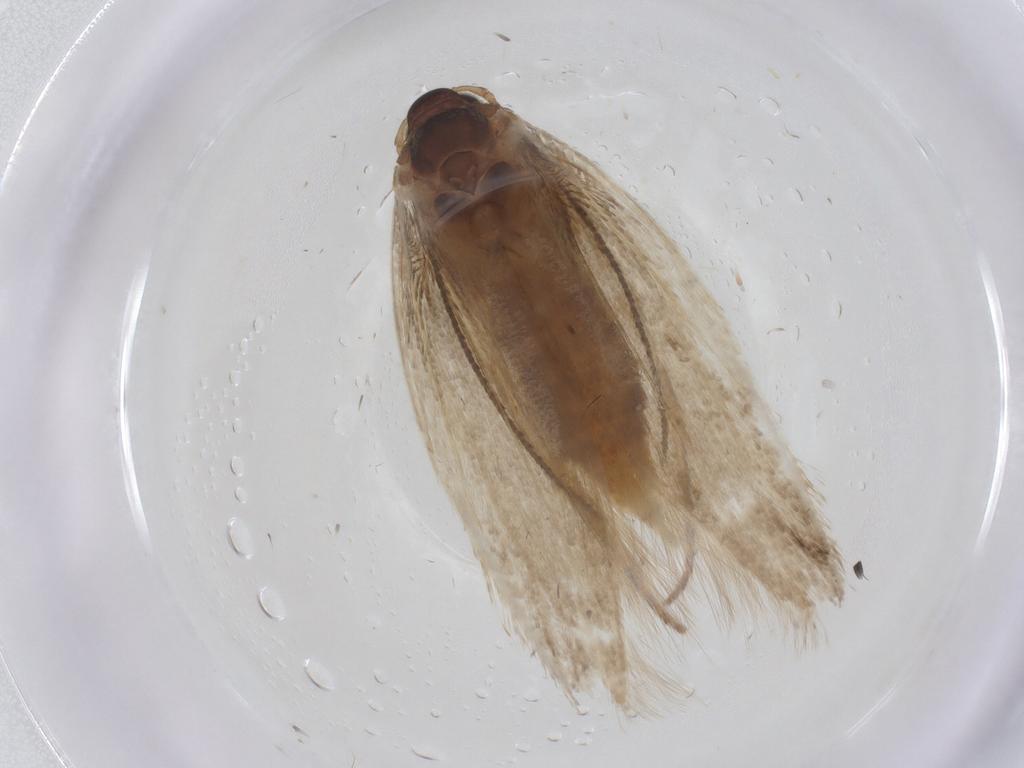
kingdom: Animalia
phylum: Arthropoda
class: Insecta
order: Lepidoptera
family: Erebidae
